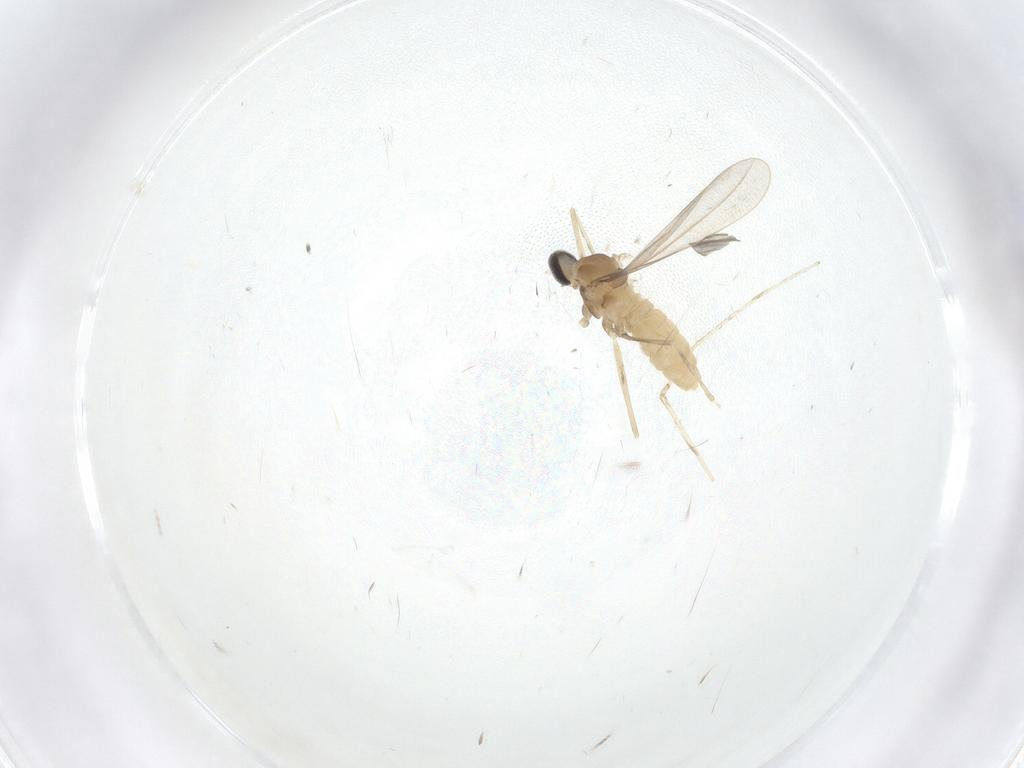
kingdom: Animalia
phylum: Arthropoda
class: Insecta
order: Diptera
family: Cecidomyiidae
